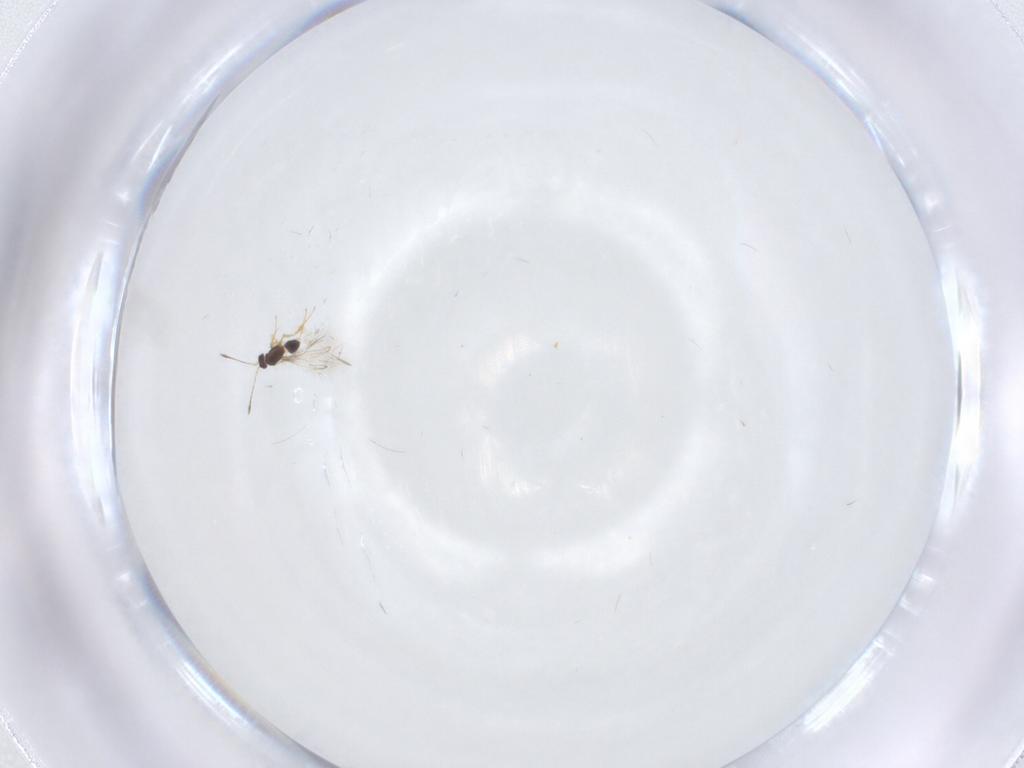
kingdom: Animalia
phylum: Arthropoda
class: Insecta
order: Hymenoptera
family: Mymaridae
